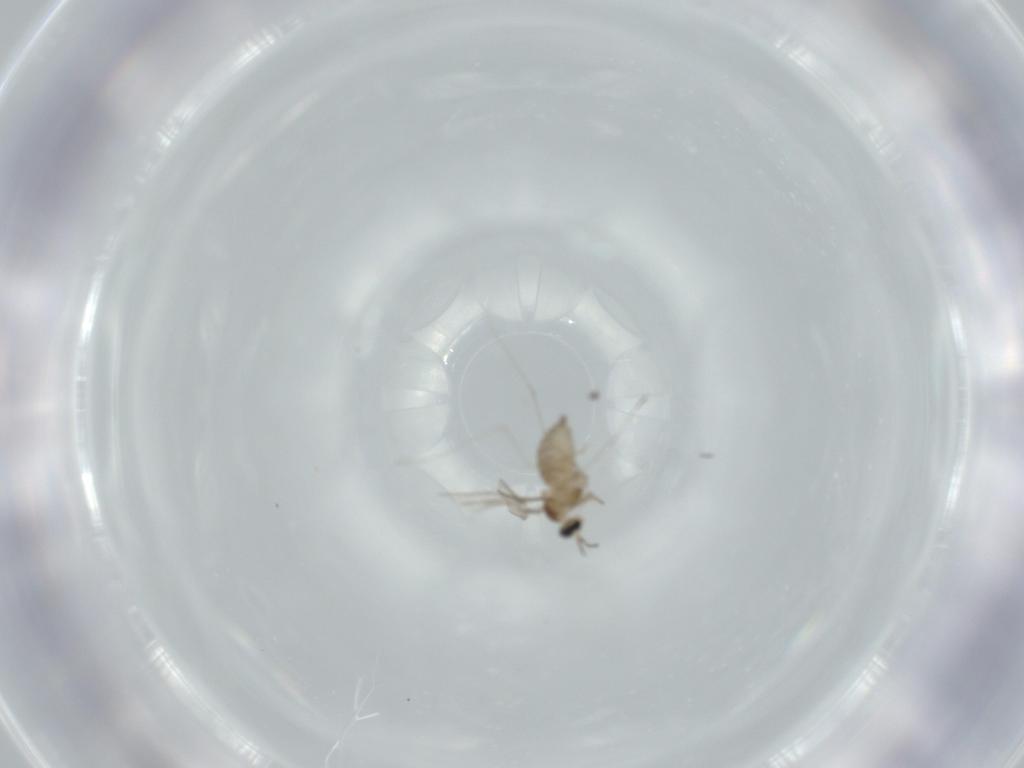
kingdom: Animalia
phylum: Arthropoda
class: Insecta
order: Diptera
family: Cecidomyiidae
